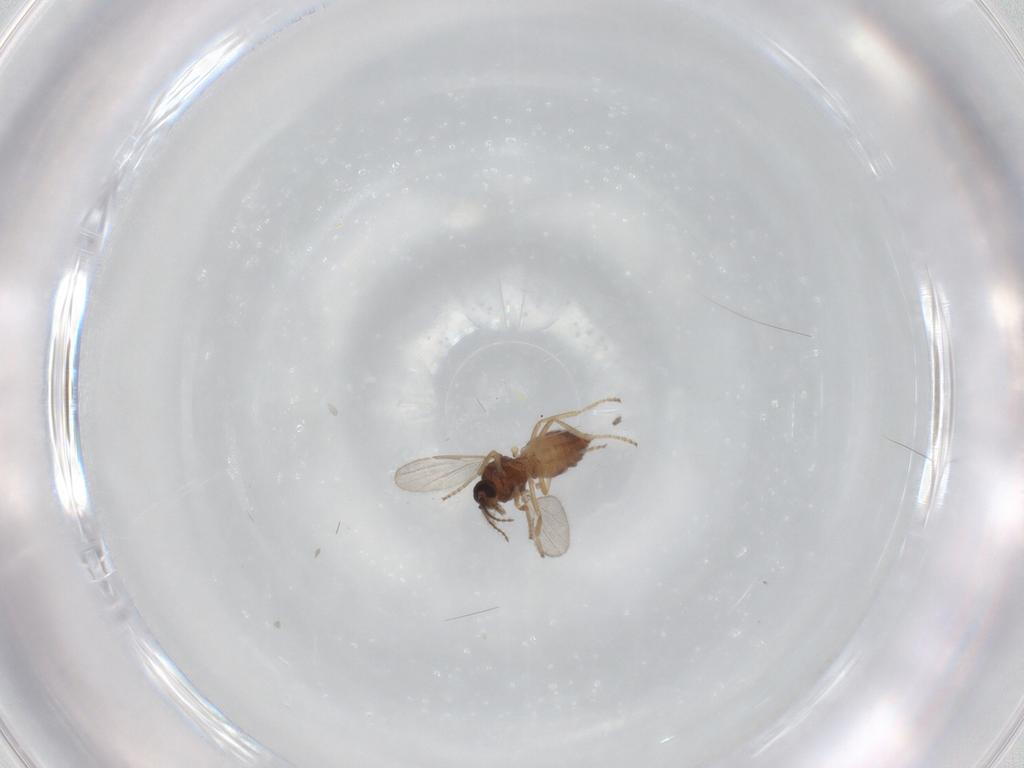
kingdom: Animalia
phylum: Arthropoda
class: Insecta
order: Diptera
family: Ceratopogonidae
